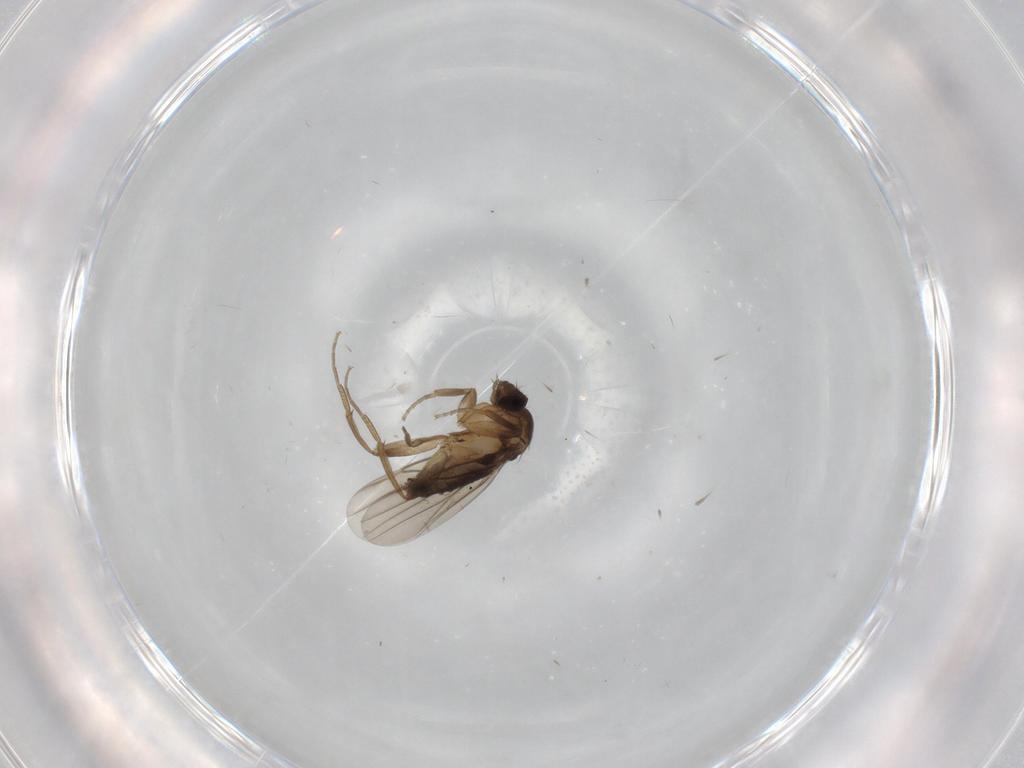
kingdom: Animalia
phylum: Arthropoda
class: Insecta
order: Diptera
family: Phoridae
